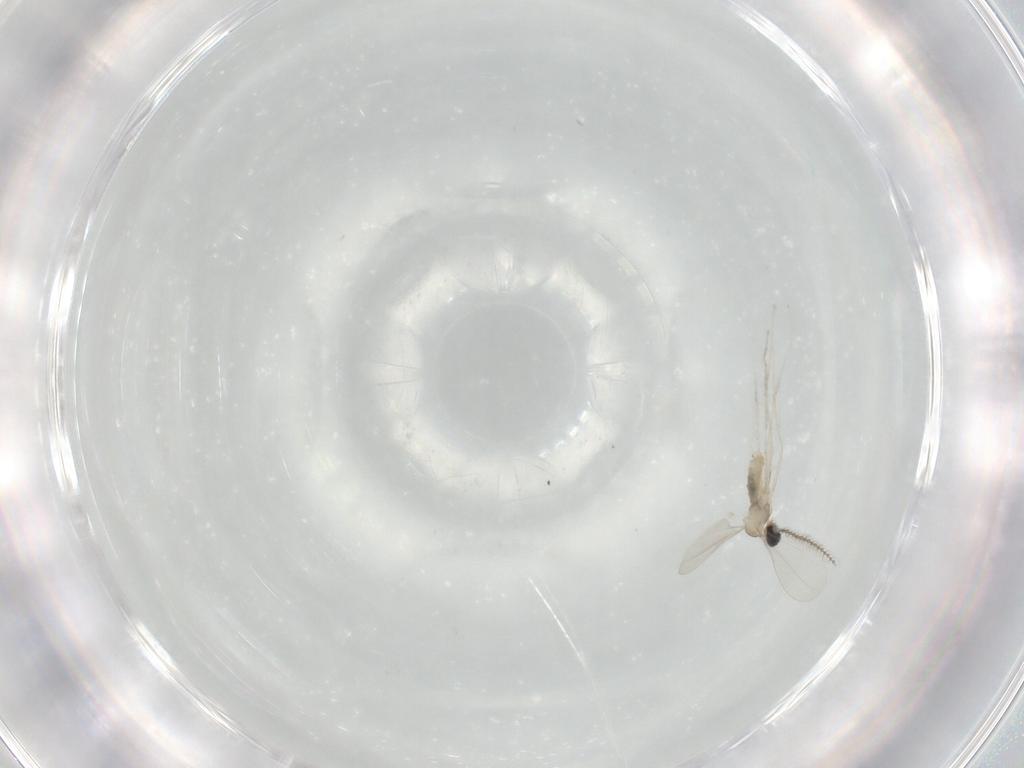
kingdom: Animalia
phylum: Arthropoda
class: Insecta
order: Diptera
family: Cecidomyiidae
